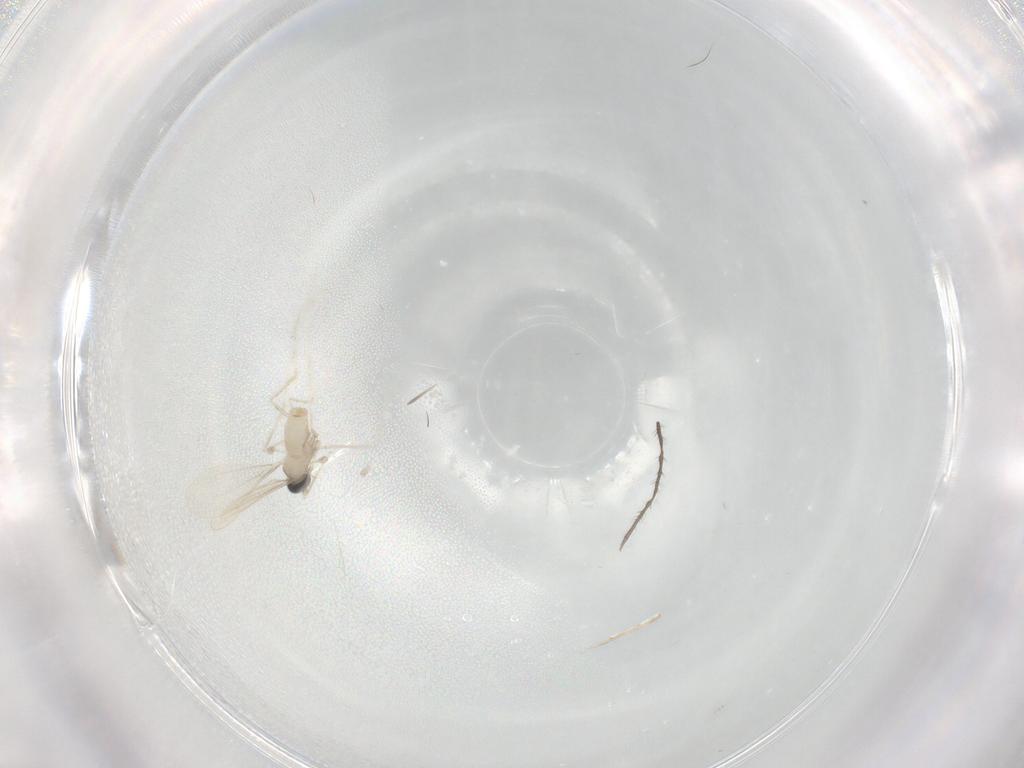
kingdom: Animalia
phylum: Arthropoda
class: Insecta
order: Diptera
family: Cecidomyiidae
